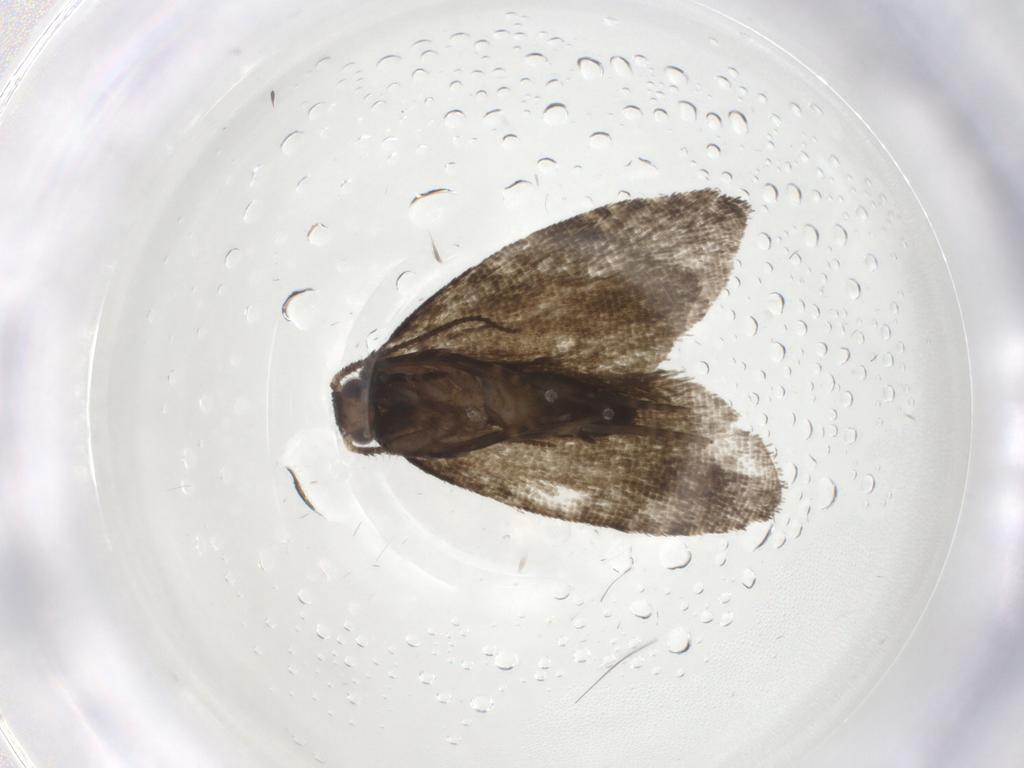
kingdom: Animalia
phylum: Arthropoda
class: Insecta
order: Lepidoptera
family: Tortricidae
